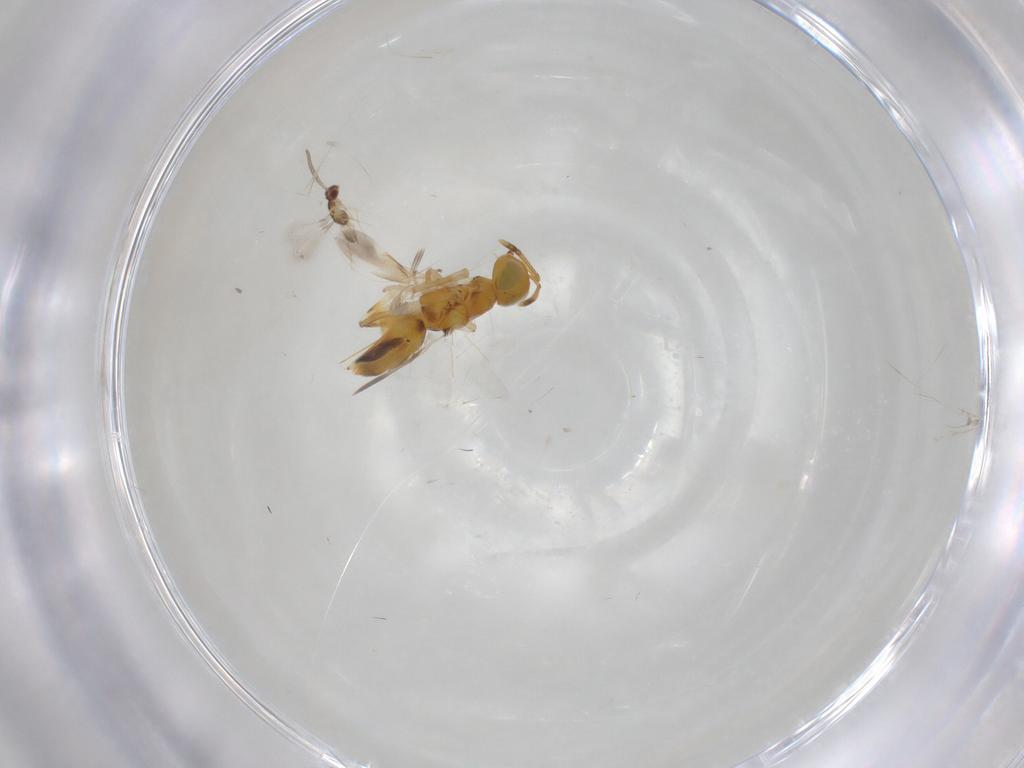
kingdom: Animalia
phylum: Arthropoda
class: Insecta
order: Lepidoptera
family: Noctuidae
